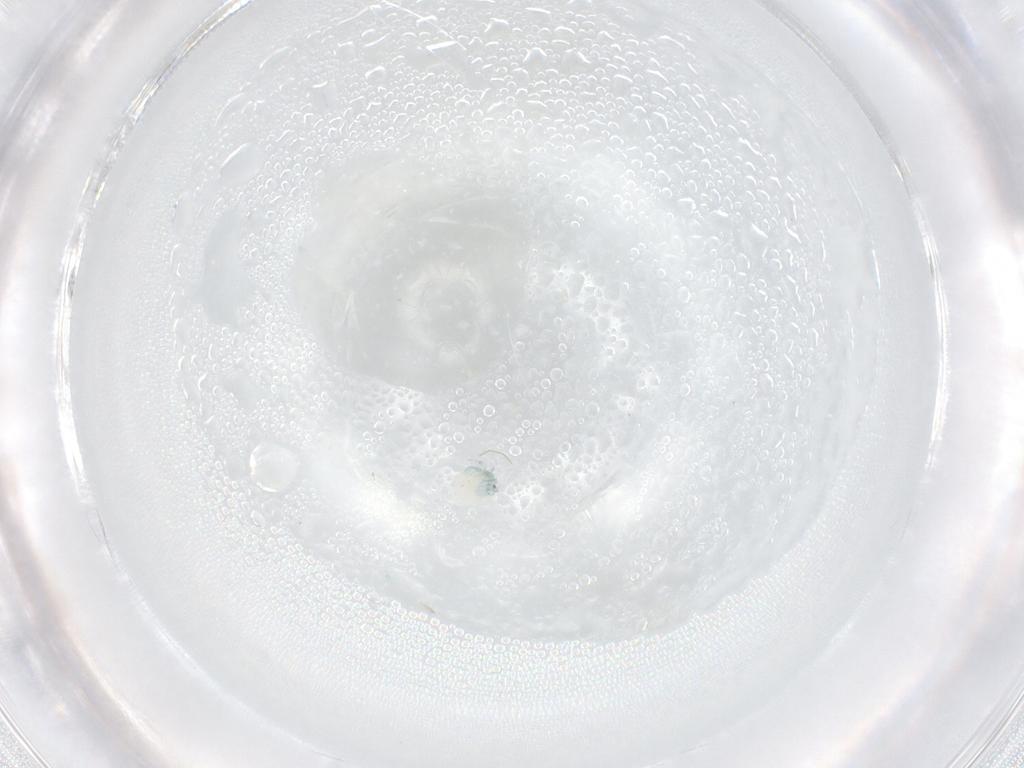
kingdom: Animalia
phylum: Arthropoda
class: Arachnida
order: Trombidiformes
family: Arrenuridae
